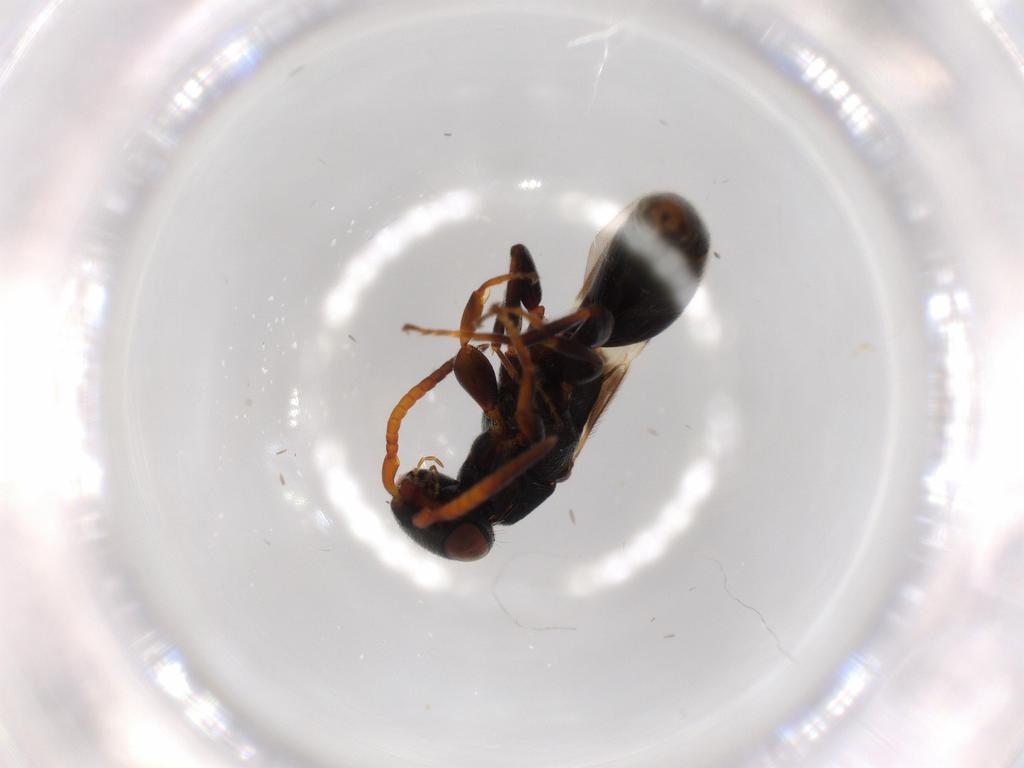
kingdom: Animalia
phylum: Arthropoda
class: Insecta
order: Hymenoptera
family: Bethylidae
